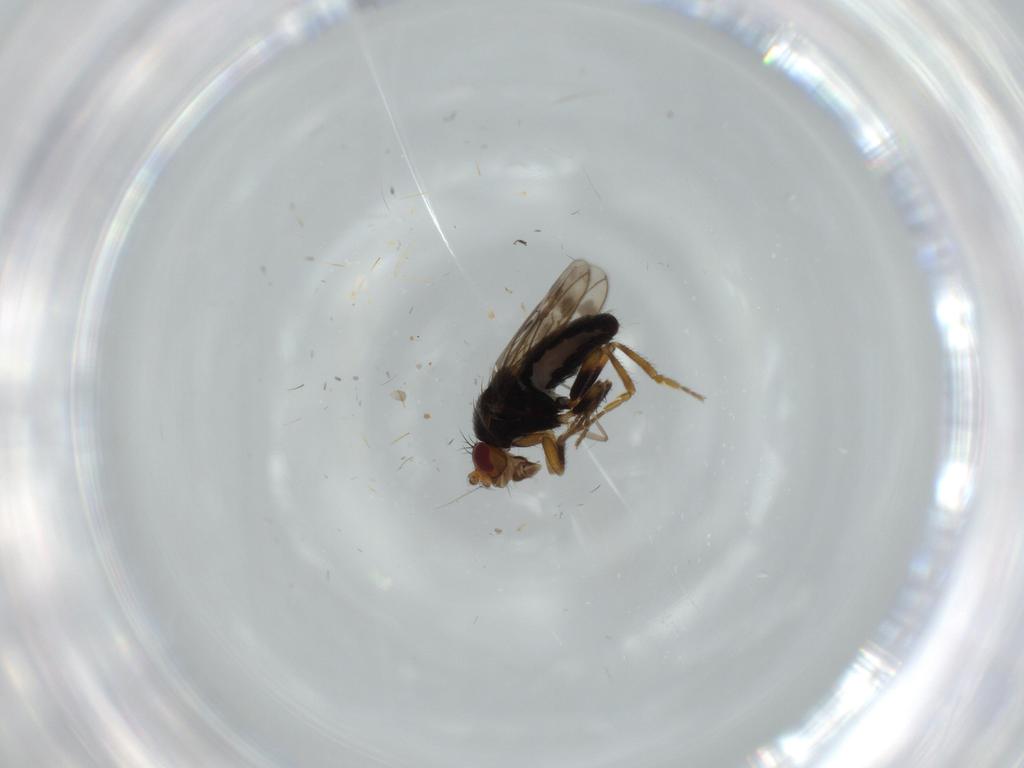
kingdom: Animalia
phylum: Arthropoda
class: Insecta
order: Diptera
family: Sphaeroceridae
